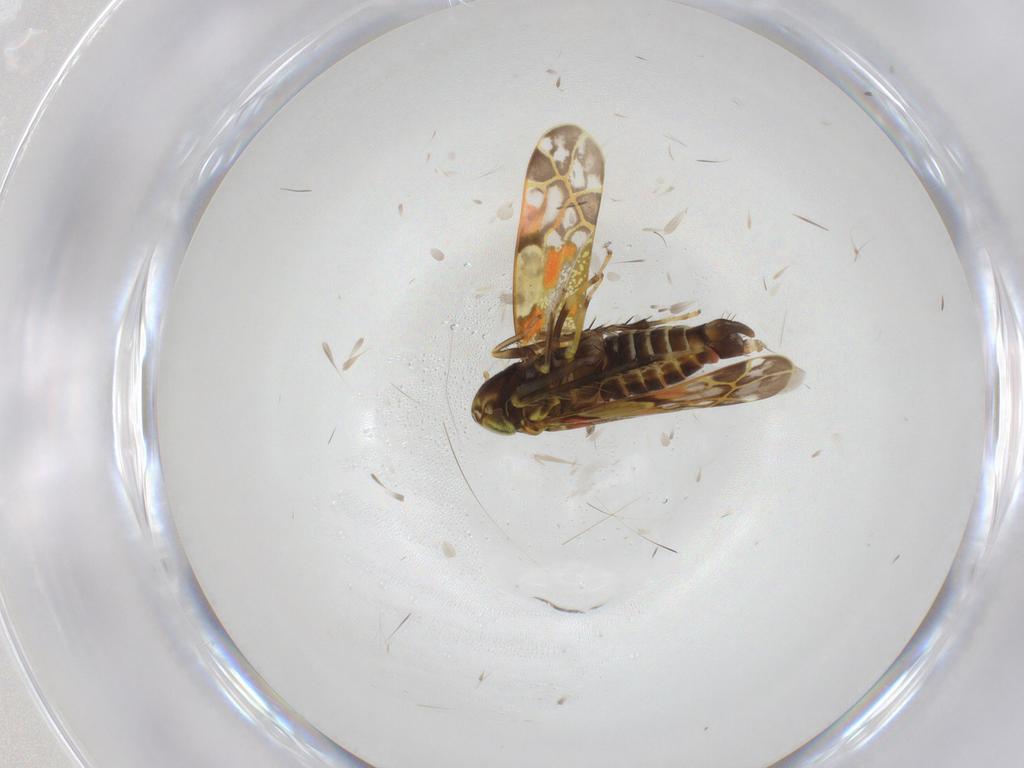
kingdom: Animalia
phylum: Arthropoda
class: Insecta
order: Hemiptera
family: Cicadellidae
